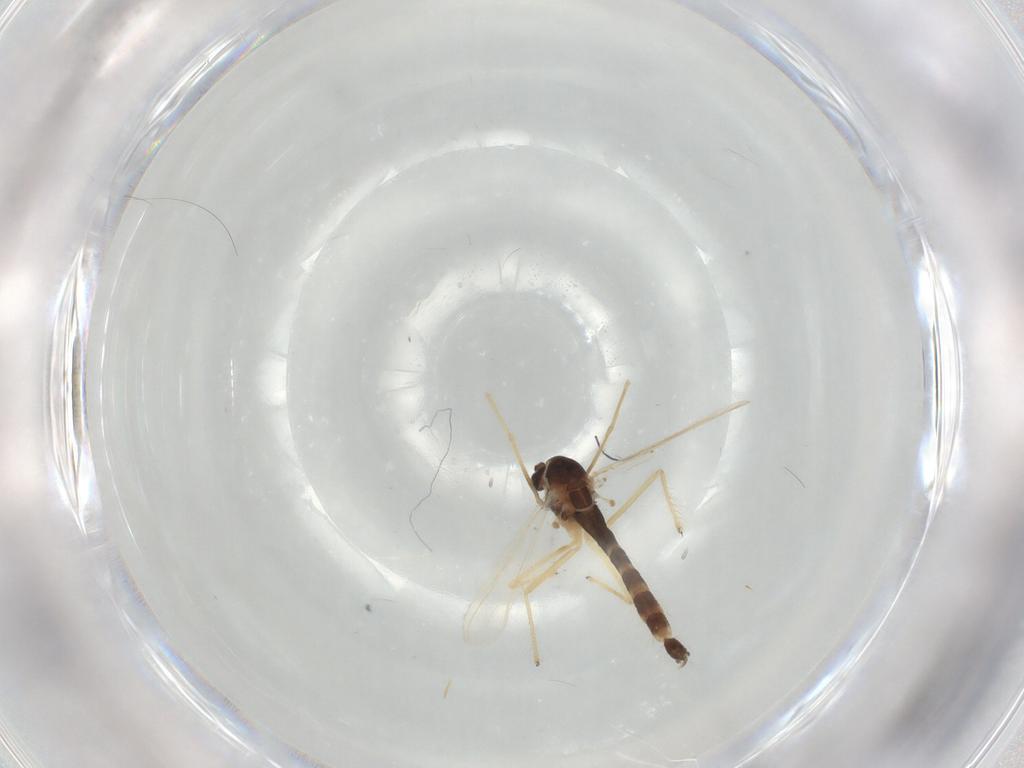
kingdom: Animalia
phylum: Arthropoda
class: Insecta
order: Diptera
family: Chironomidae
